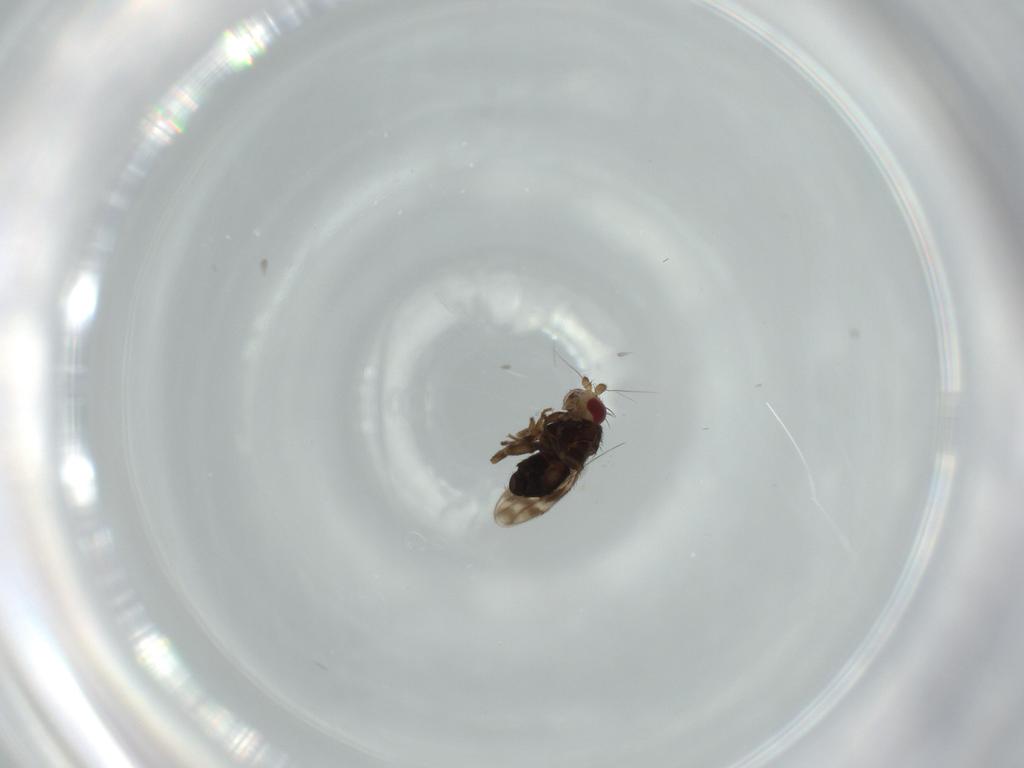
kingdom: Animalia
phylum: Arthropoda
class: Insecta
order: Diptera
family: Sphaeroceridae
